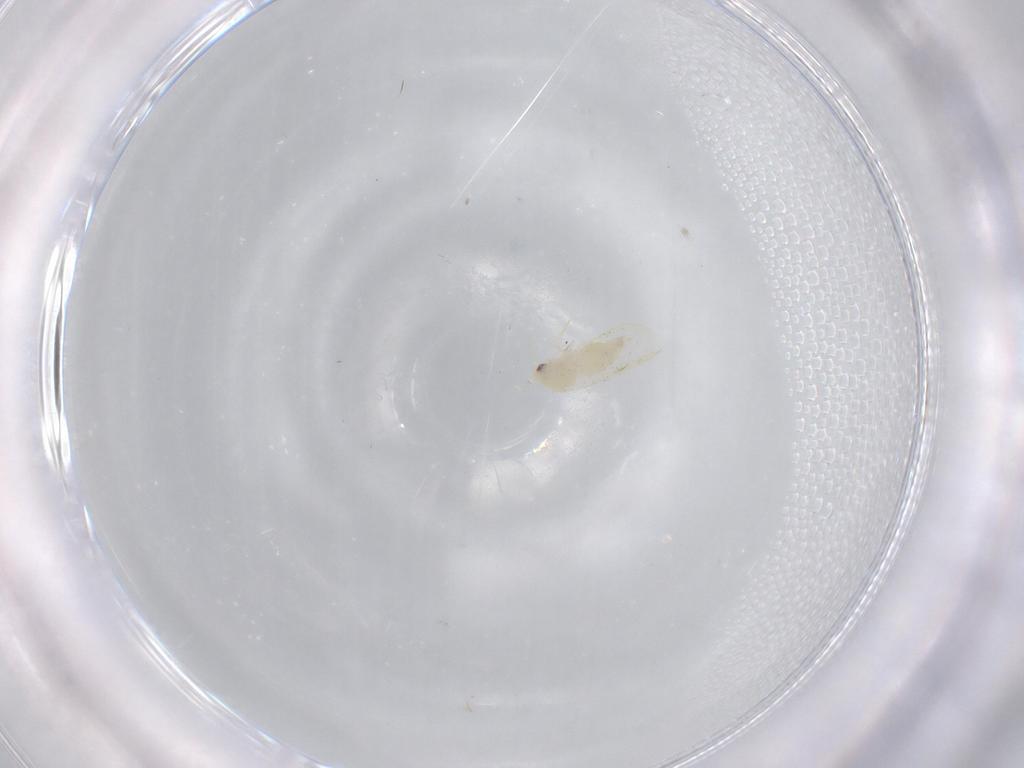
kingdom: Animalia
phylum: Arthropoda
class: Insecta
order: Hemiptera
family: Aleyrodidae
